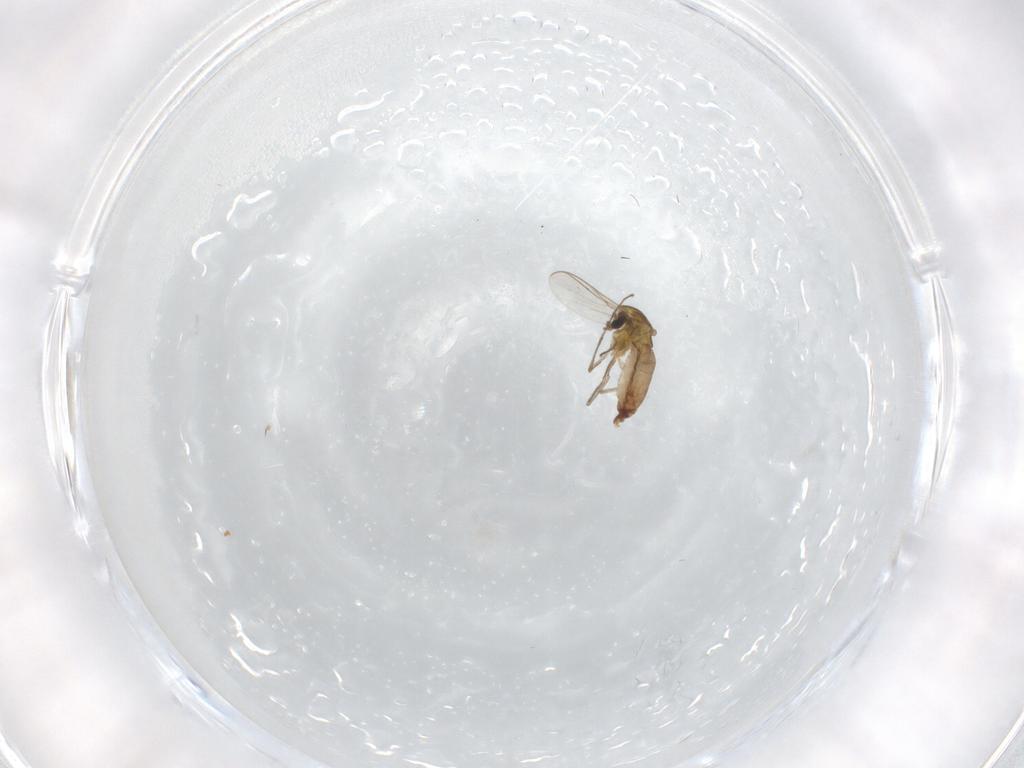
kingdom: Animalia
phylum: Arthropoda
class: Insecta
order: Diptera
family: Chironomidae
